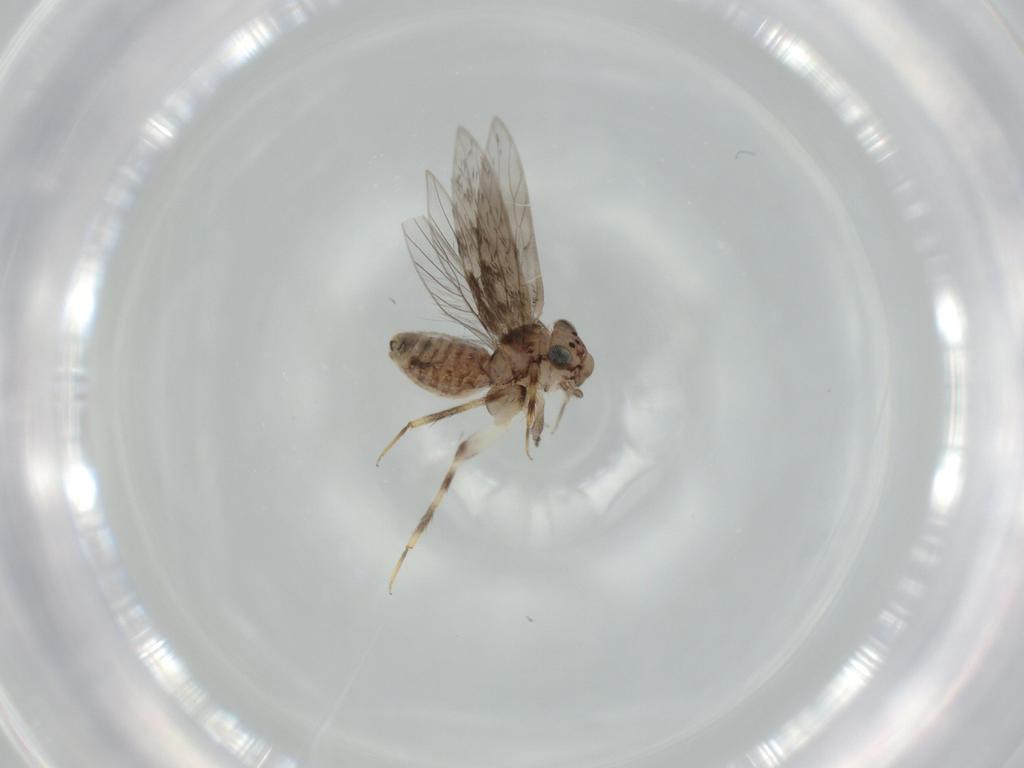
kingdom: Animalia
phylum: Arthropoda
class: Insecta
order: Psocodea
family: Lepidopsocidae
